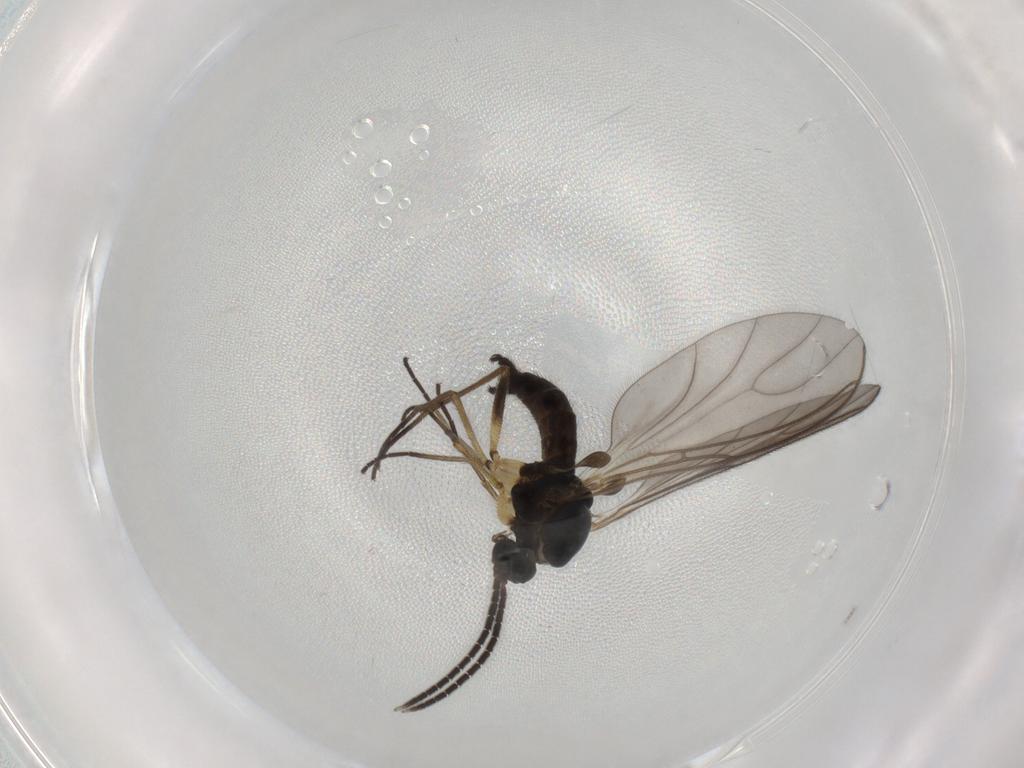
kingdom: Animalia
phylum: Arthropoda
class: Insecta
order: Diptera
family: Sciaridae
